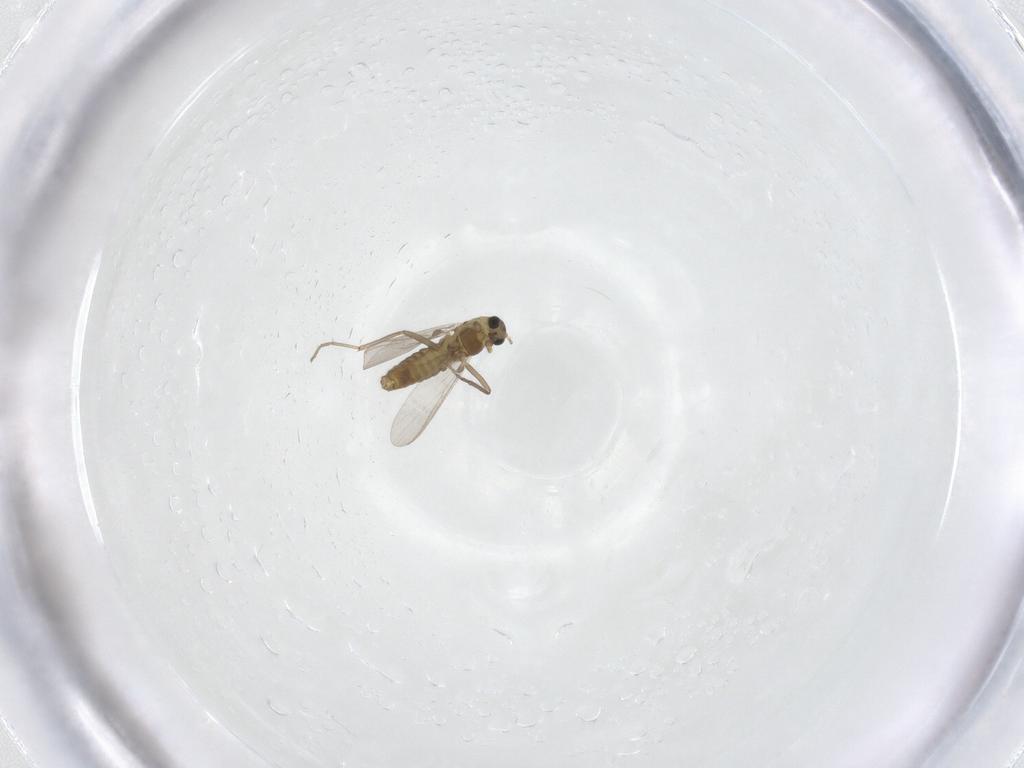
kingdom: Animalia
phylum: Arthropoda
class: Insecta
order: Diptera
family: Chironomidae
